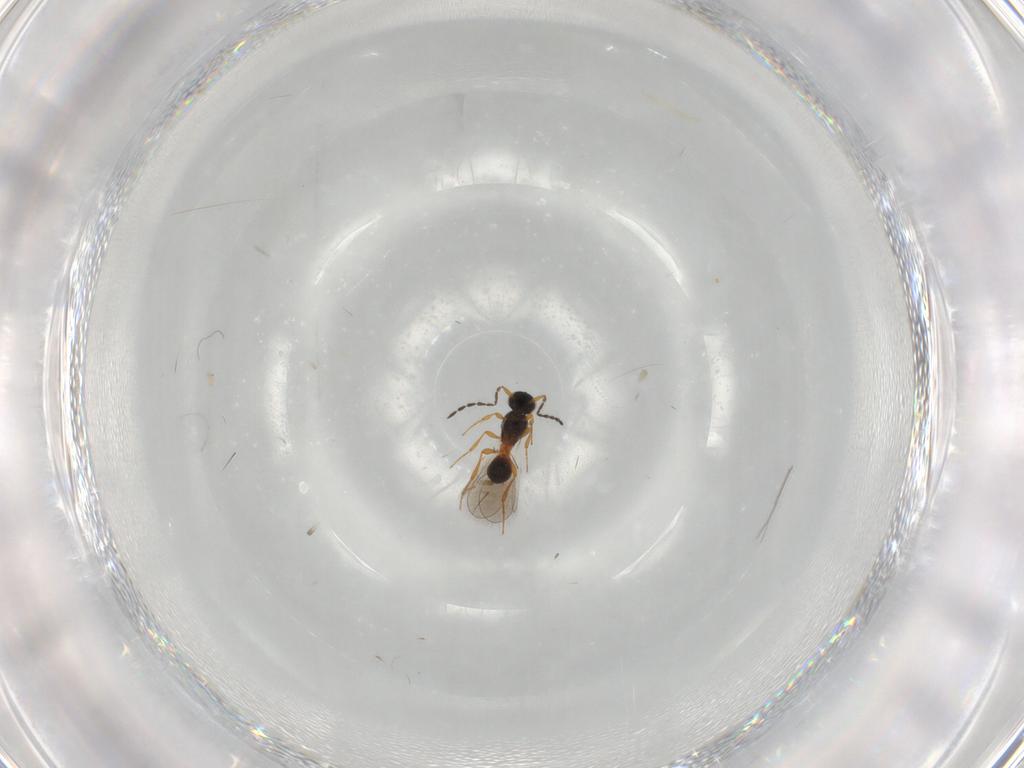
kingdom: Animalia
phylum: Arthropoda
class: Insecta
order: Hymenoptera
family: Platygastridae
